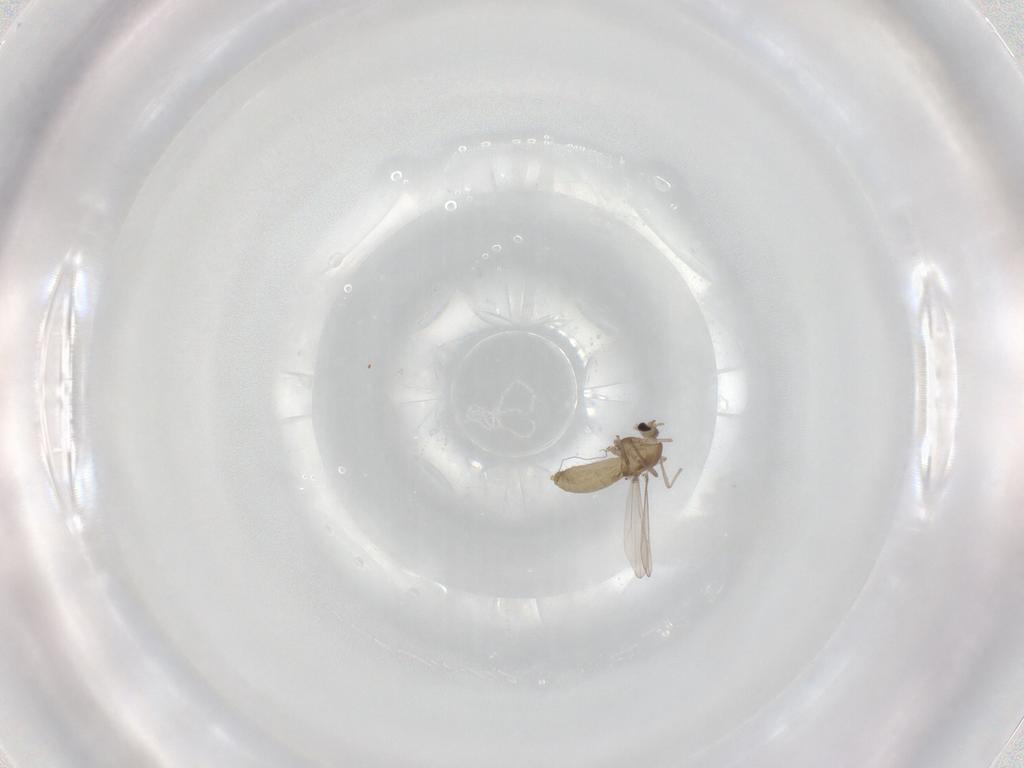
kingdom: Animalia
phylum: Arthropoda
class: Insecta
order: Diptera
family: Chironomidae
